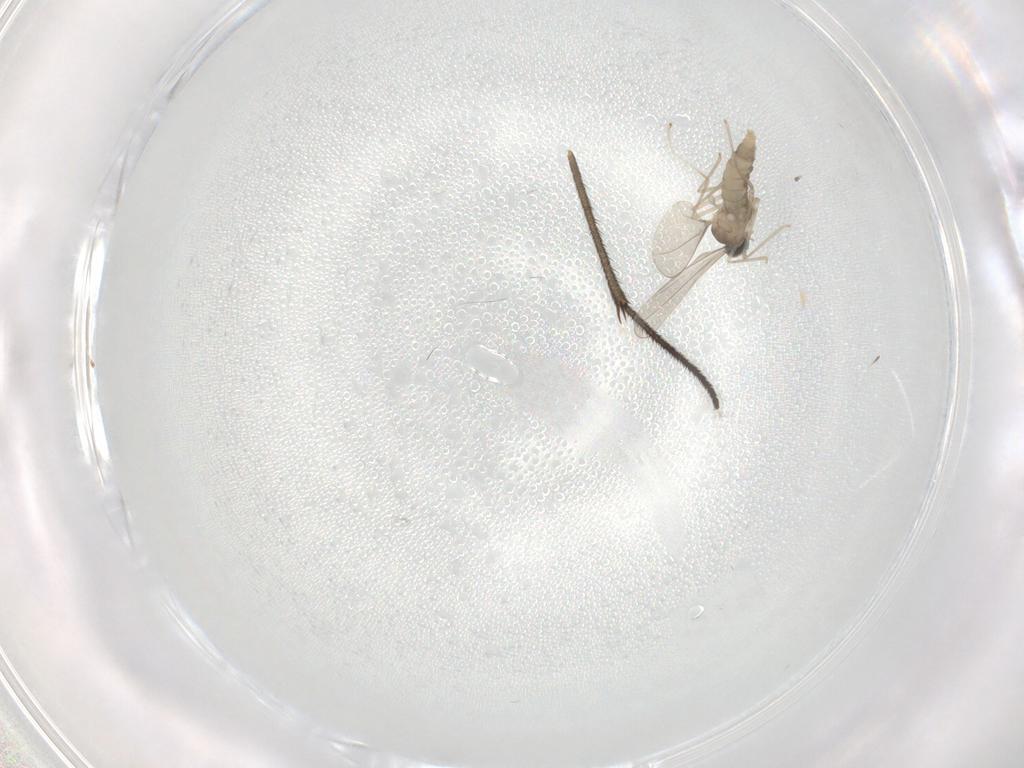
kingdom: Animalia
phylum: Arthropoda
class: Insecta
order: Diptera
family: Cecidomyiidae
